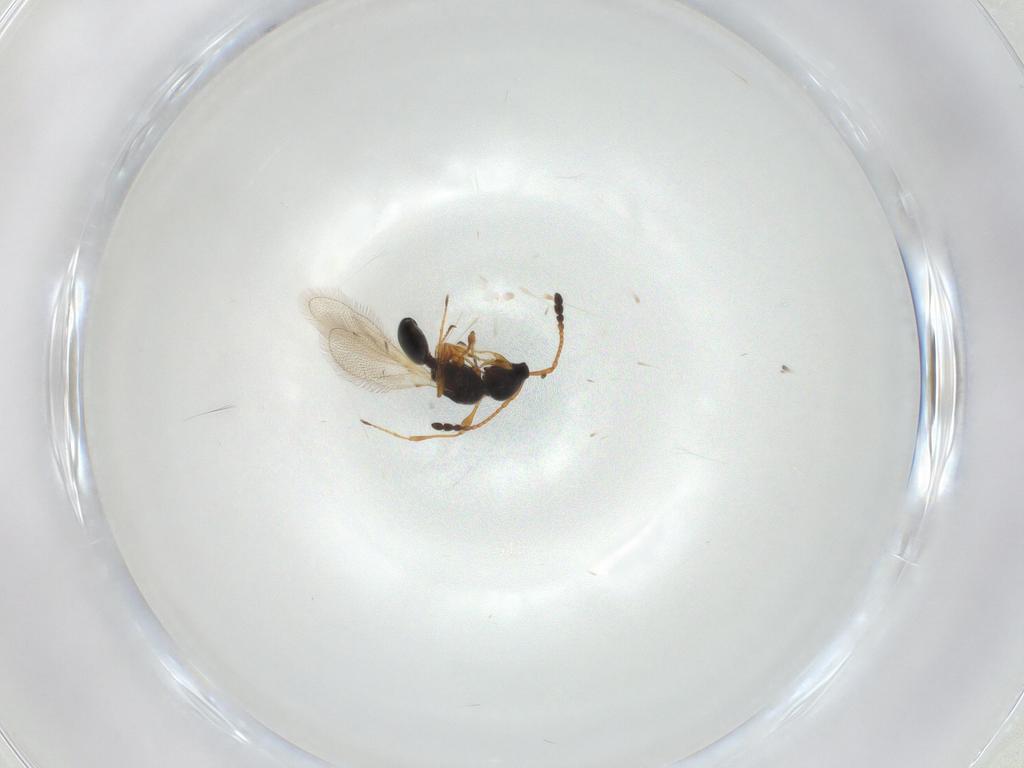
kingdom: Animalia
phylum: Arthropoda
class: Insecta
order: Hymenoptera
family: Diapriidae
